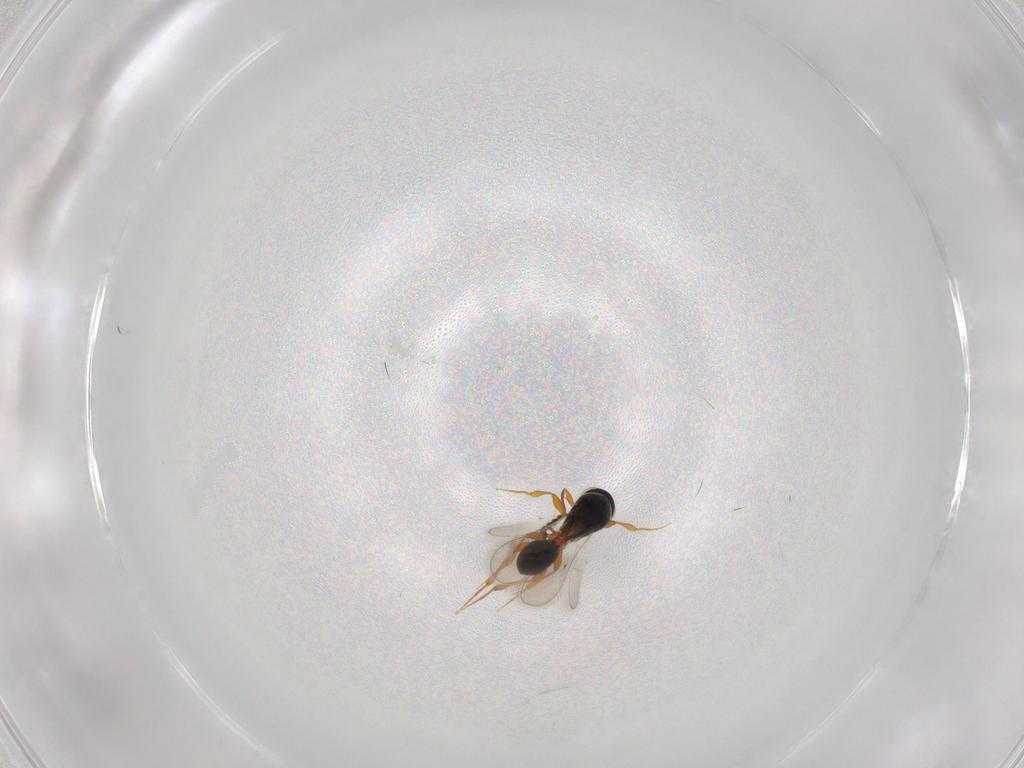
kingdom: Animalia
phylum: Arthropoda
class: Insecta
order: Hymenoptera
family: Platygastridae
